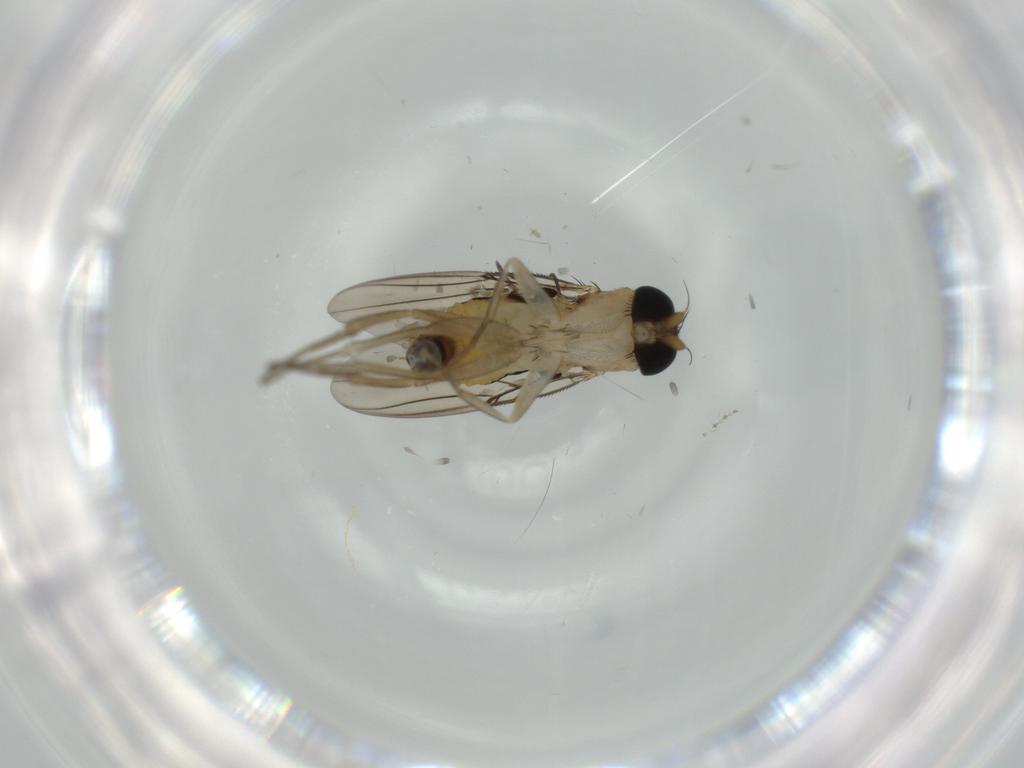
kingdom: Animalia
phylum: Arthropoda
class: Insecta
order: Diptera
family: Phoridae
